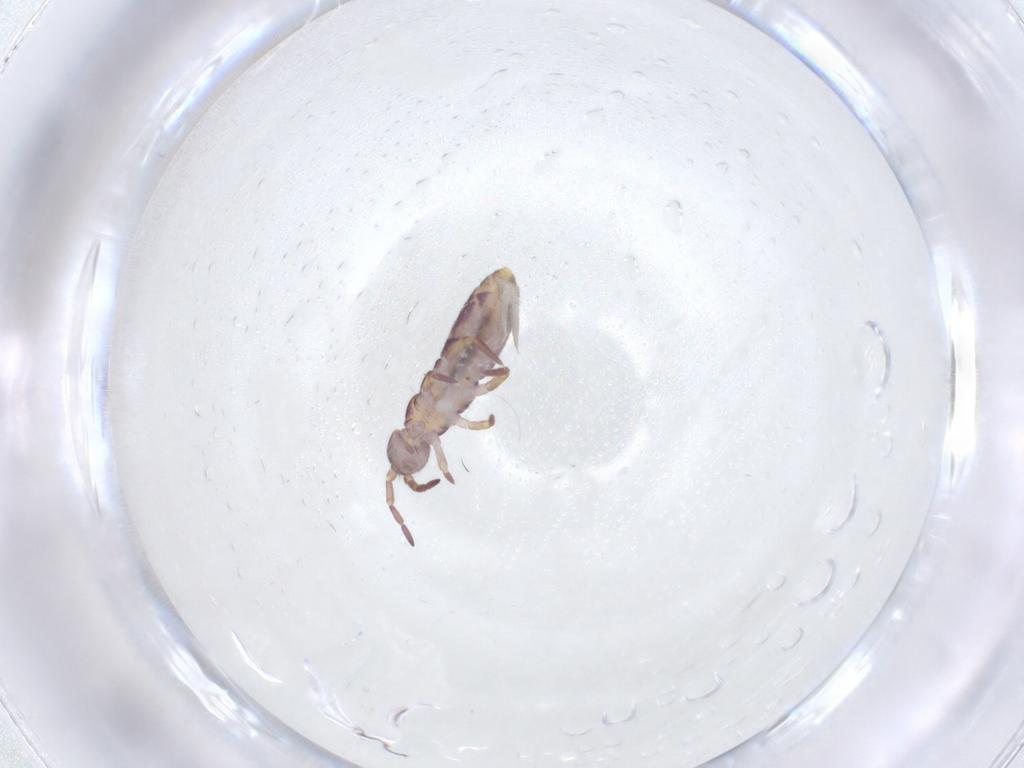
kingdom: Animalia
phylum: Arthropoda
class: Collembola
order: Entomobryomorpha
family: Isotomidae
